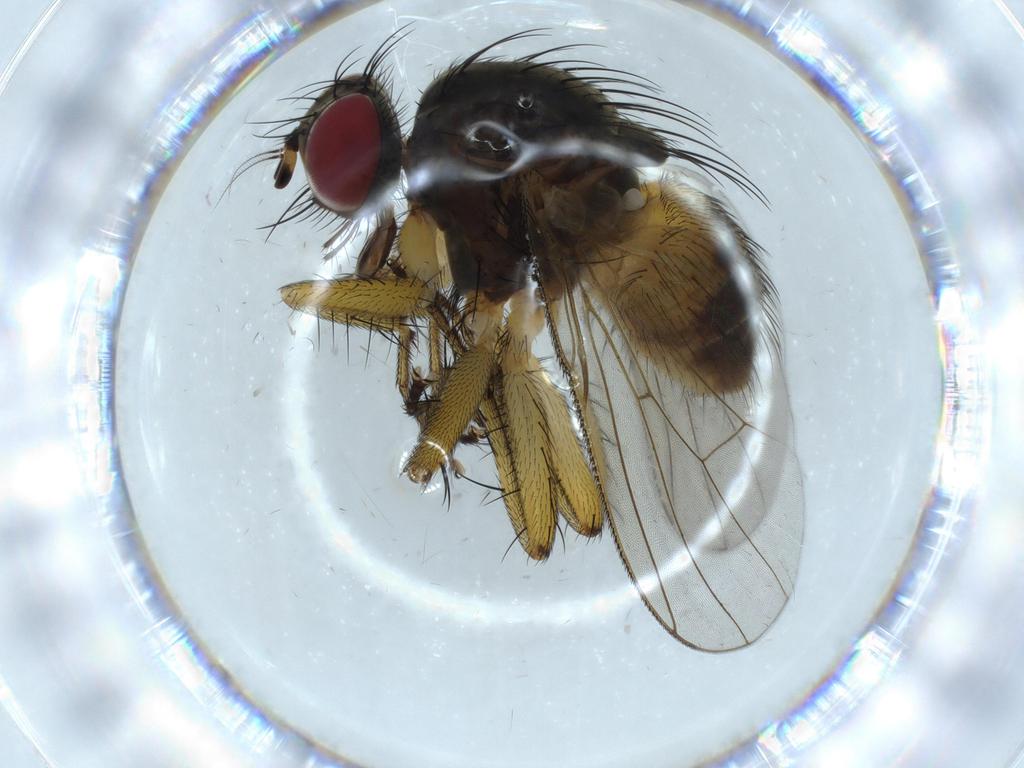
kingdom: Animalia
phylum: Arthropoda
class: Insecta
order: Diptera
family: Muscidae
